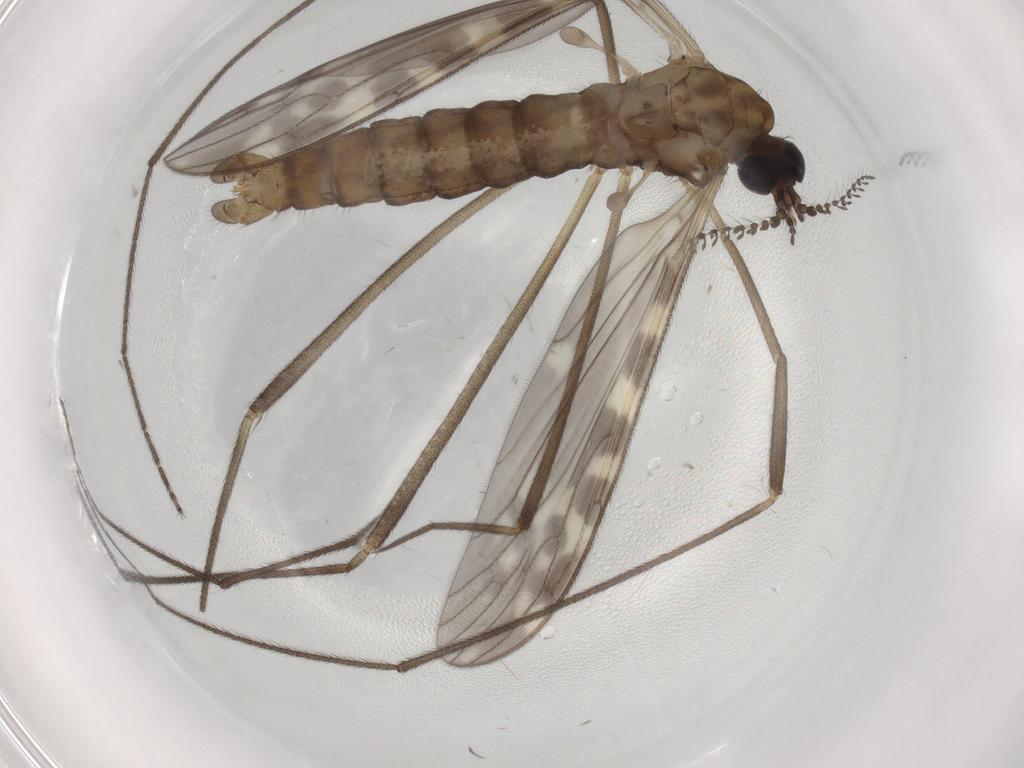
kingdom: Animalia
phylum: Arthropoda
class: Insecta
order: Diptera
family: Limoniidae
